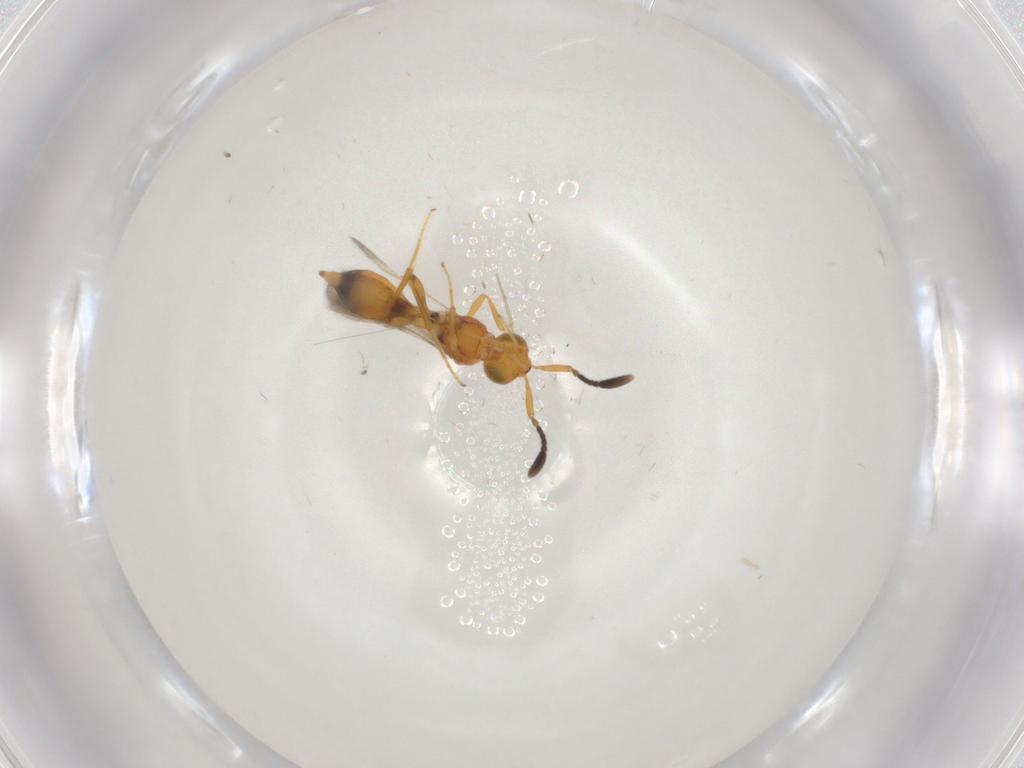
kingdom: Animalia
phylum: Arthropoda
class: Insecta
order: Hymenoptera
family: Scelionidae
